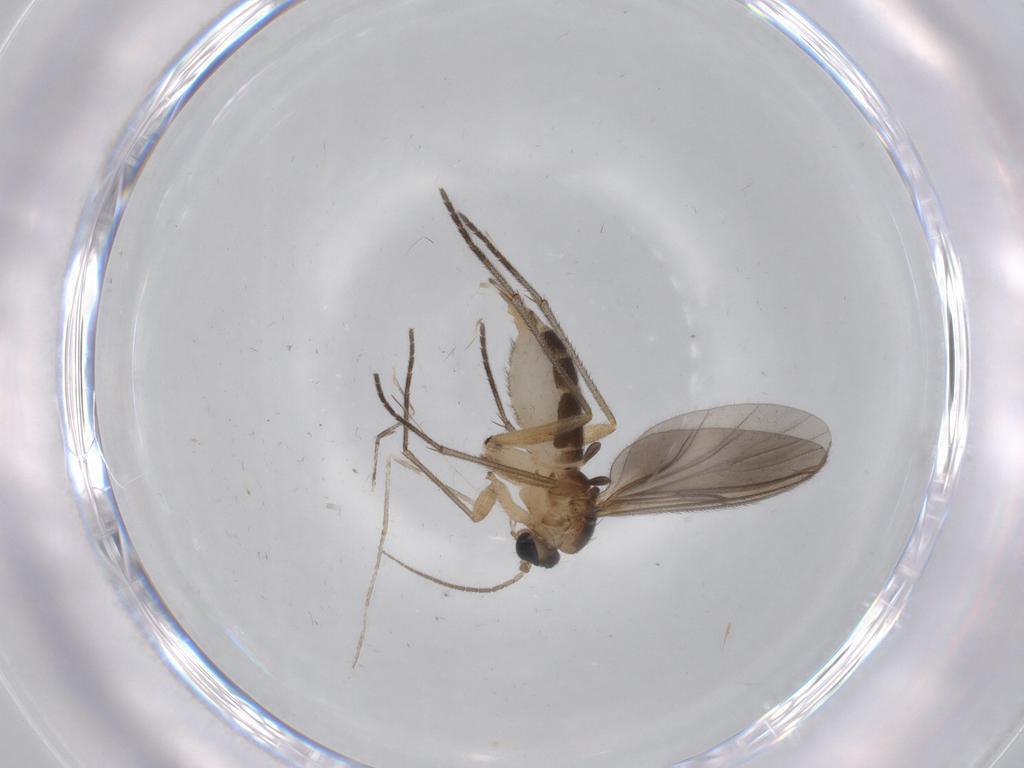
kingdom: Animalia
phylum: Arthropoda
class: Insecta
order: Diptera
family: Sciaridae
